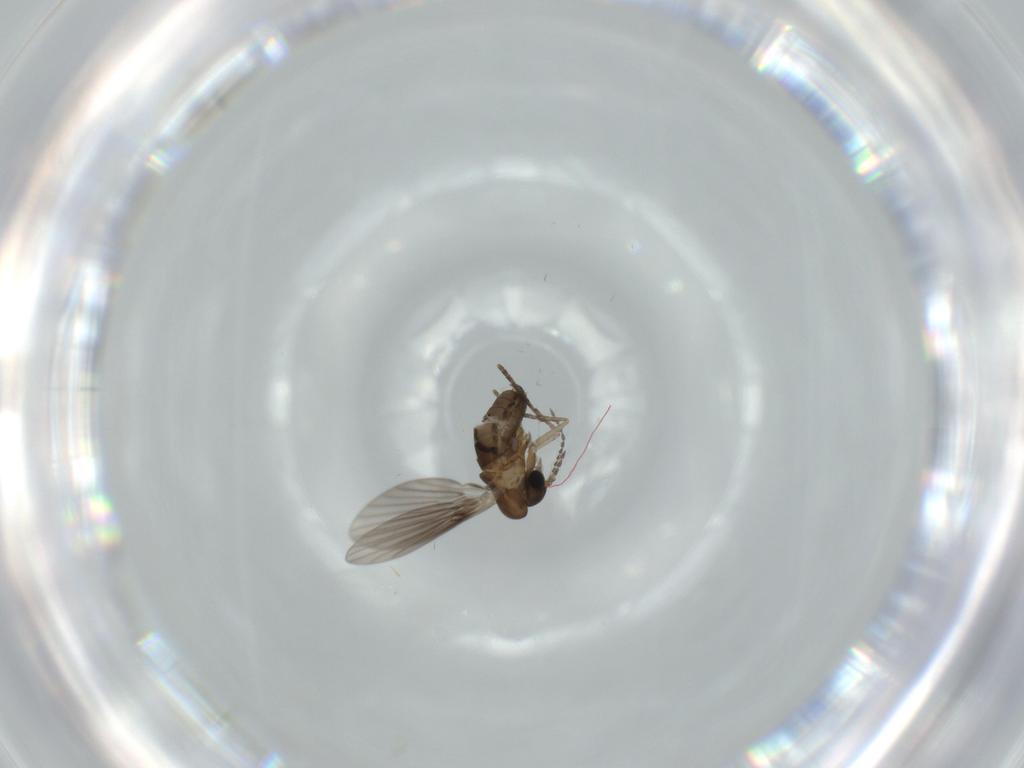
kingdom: Animalia
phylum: Arthropoda
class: Insecta
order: Diptera
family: Psychodidae
